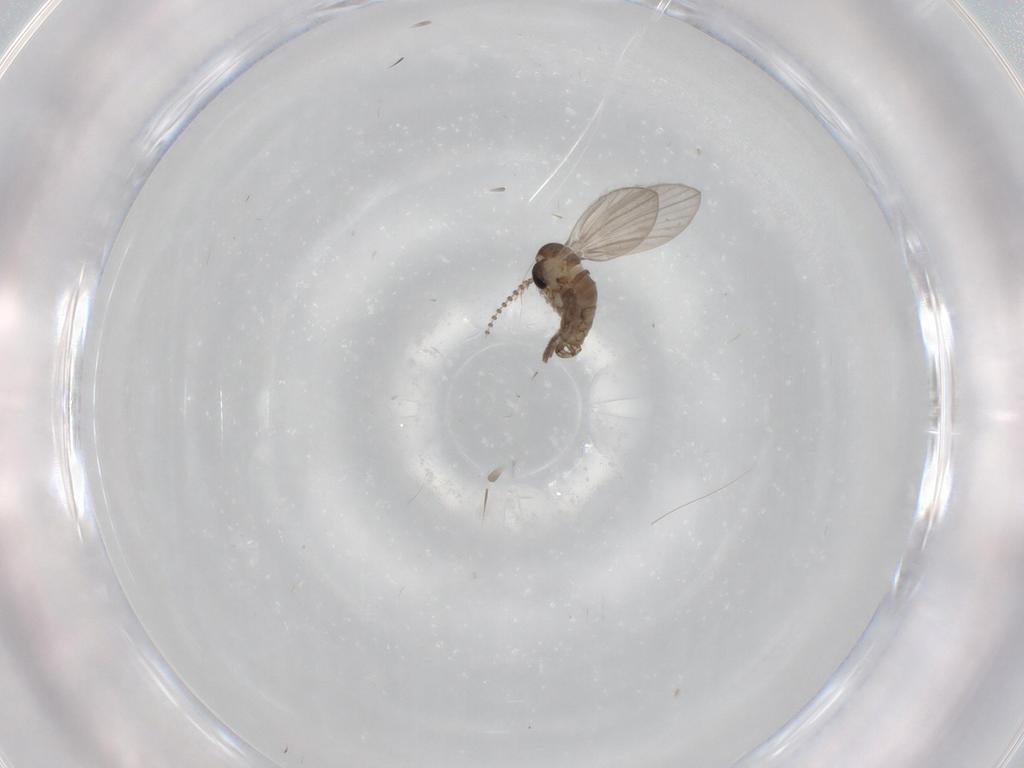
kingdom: Animalia
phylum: Arthropoda
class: Insecta
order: Diptera
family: Psychodidae
